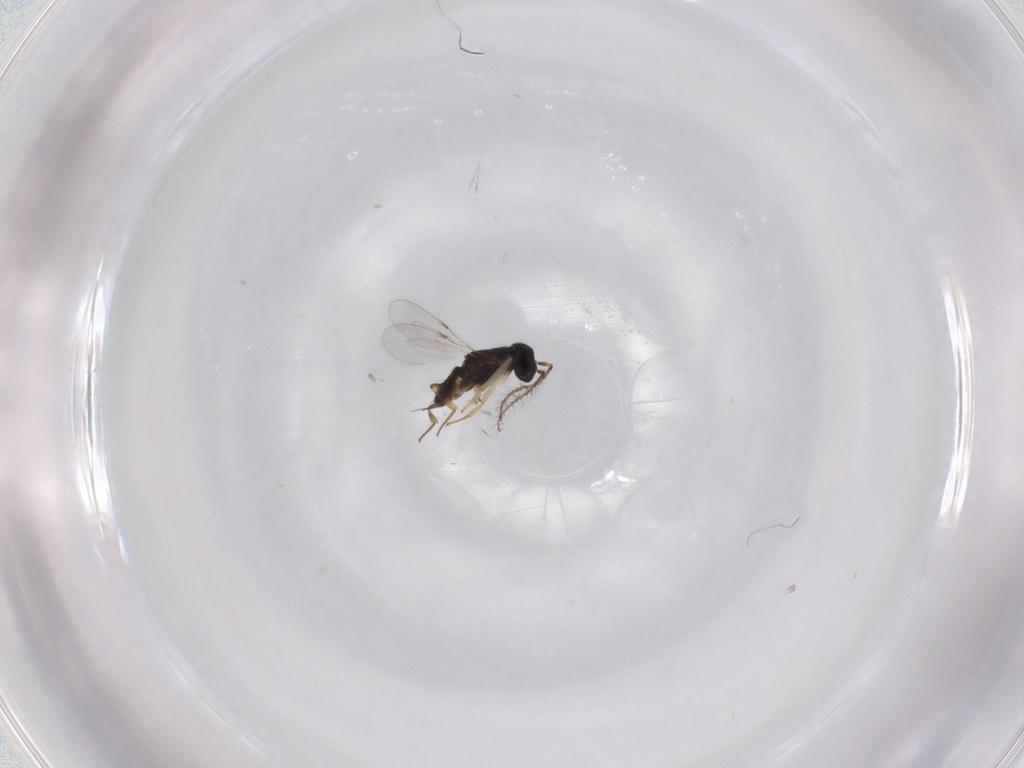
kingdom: Animalia
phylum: Arthropoda
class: Insecta
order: Hymenoptera
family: Encyrtidae
